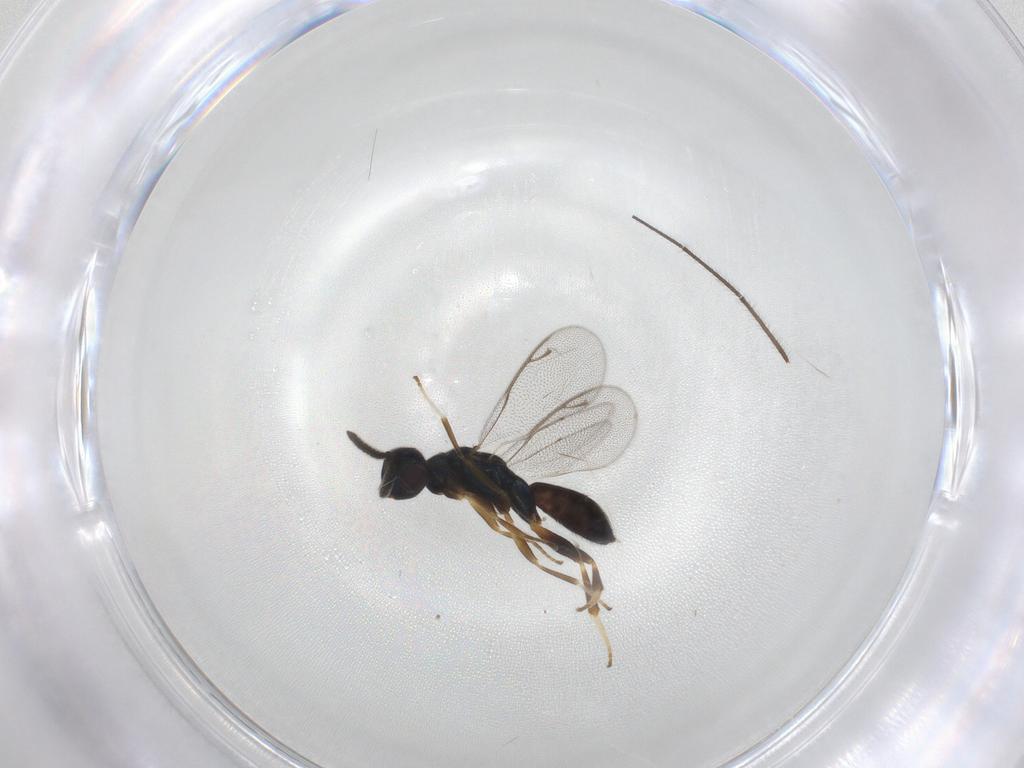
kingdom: Animalia
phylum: Arthropoda
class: Insecta
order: Hymenoptera
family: Cleonyminae
